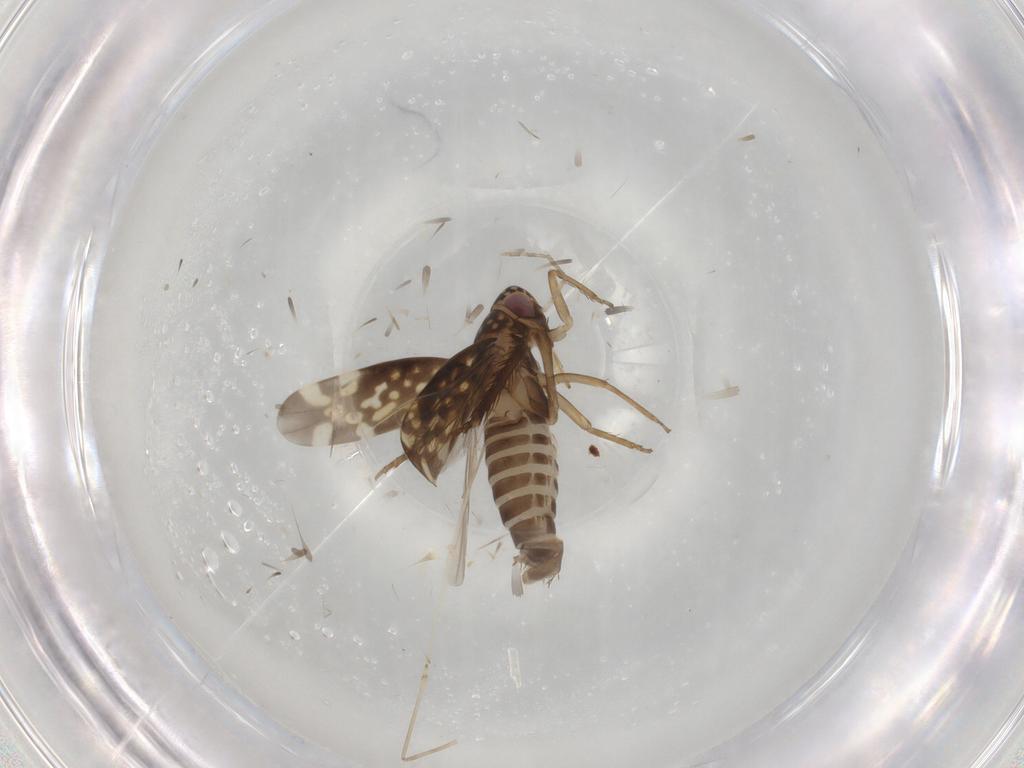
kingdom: Animalia
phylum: Arthropoda
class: Insecta
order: Hemiptera
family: Cicadellidae
